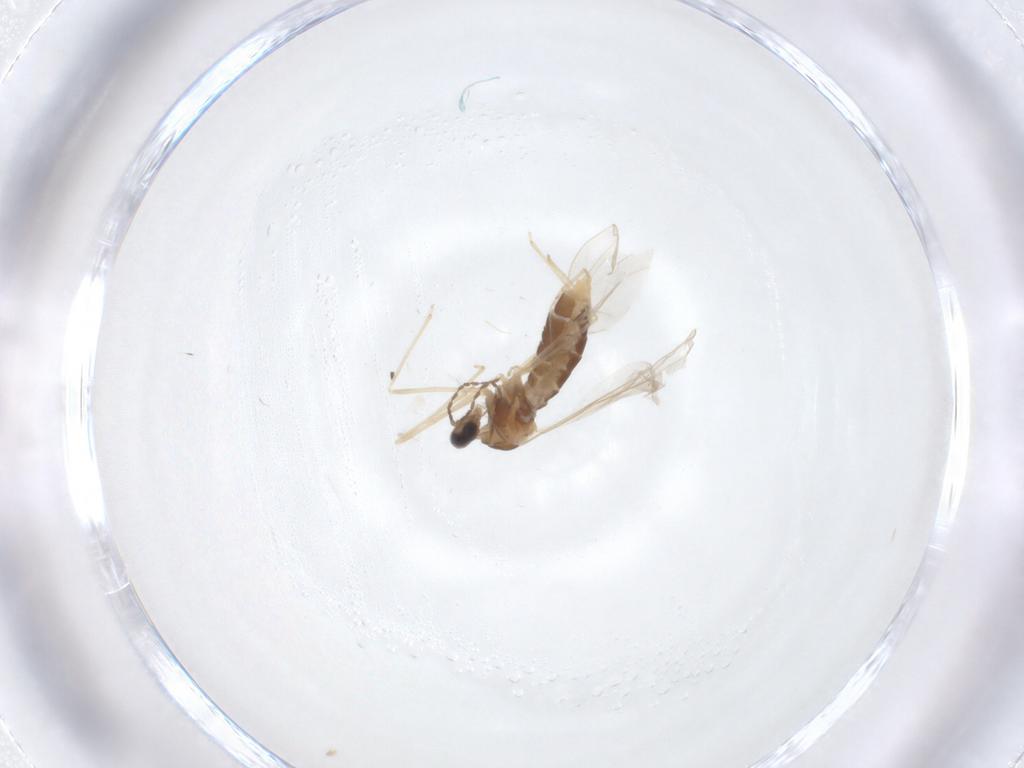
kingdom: Animalia
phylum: Arthropoda
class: Insecta
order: Diptera
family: Cecidomyiidae
